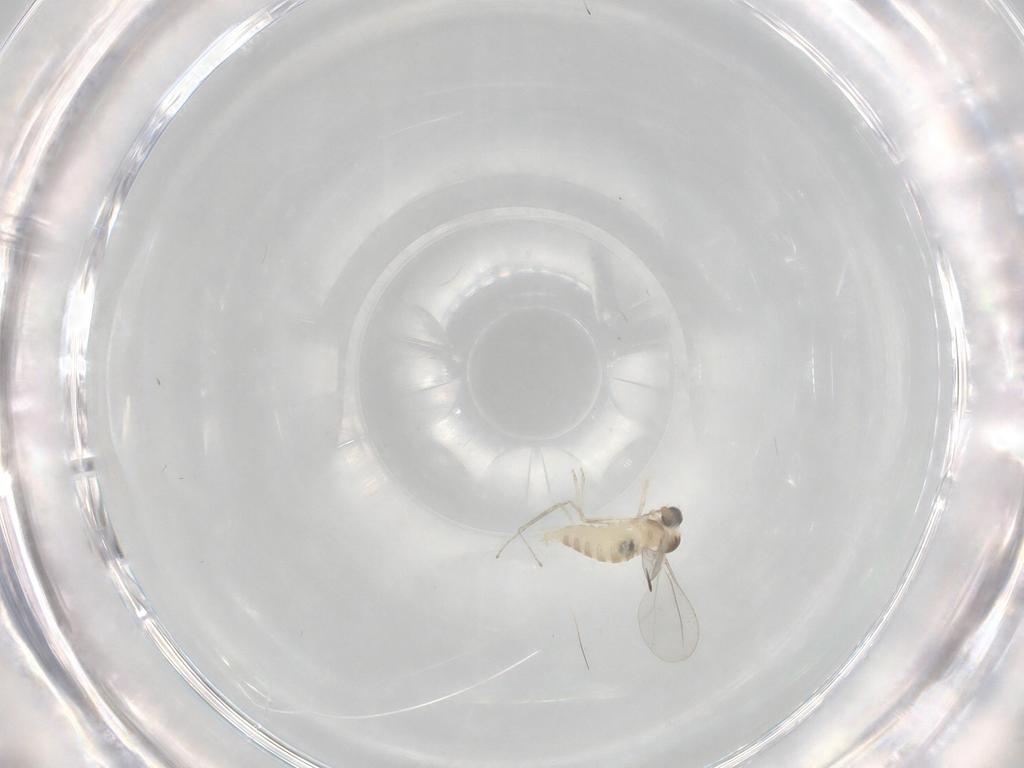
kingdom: Animalia
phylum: Arthropoda
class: Insecta
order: Diptera
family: Cecidomyiidae
